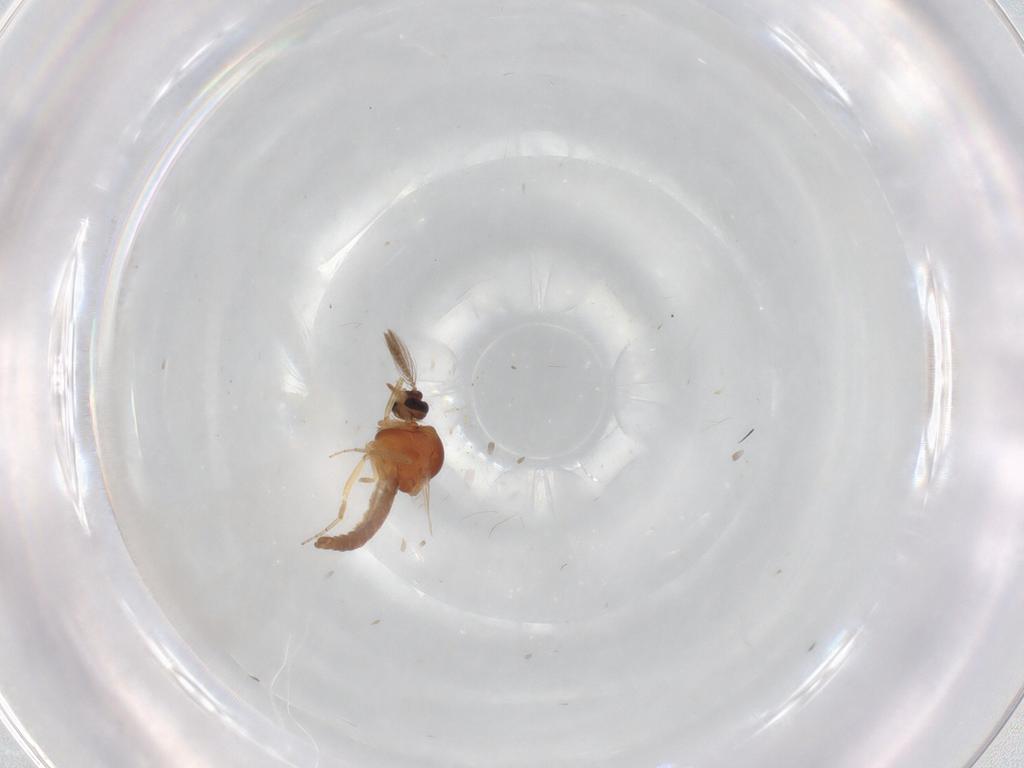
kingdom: Animalia
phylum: Arthropoda
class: Insecta
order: Diptera
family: Ceratopogonidae
